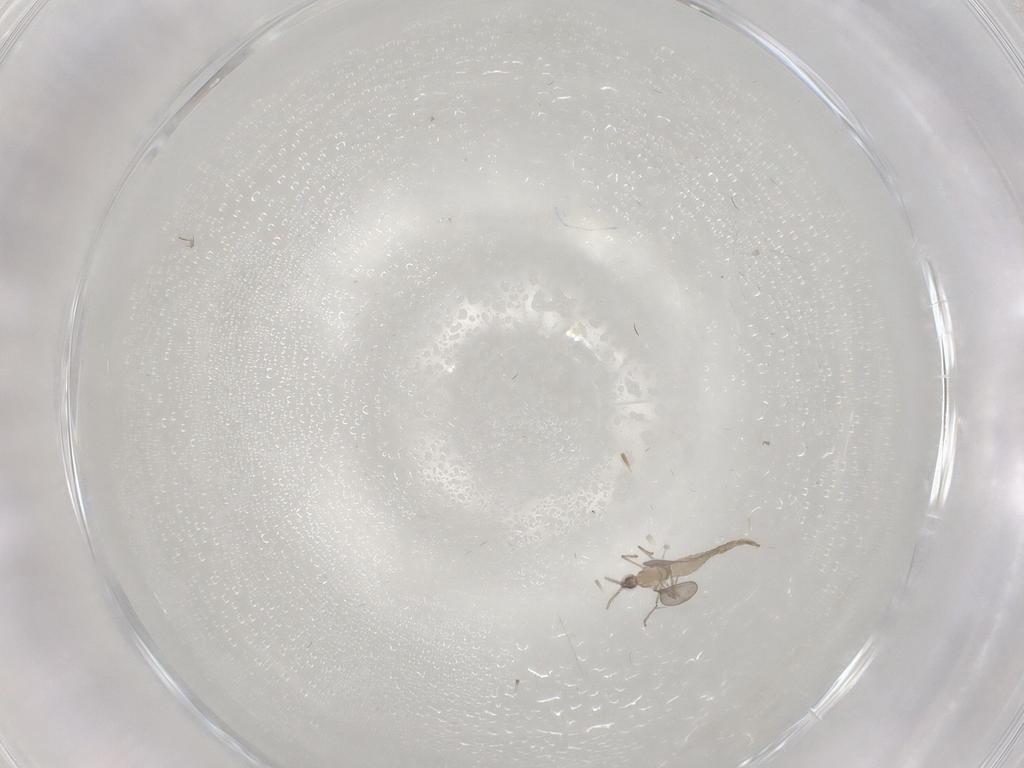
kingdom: Animalia
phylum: Arthropoda
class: Insecta
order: Diptera
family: Cecidomyiidae
